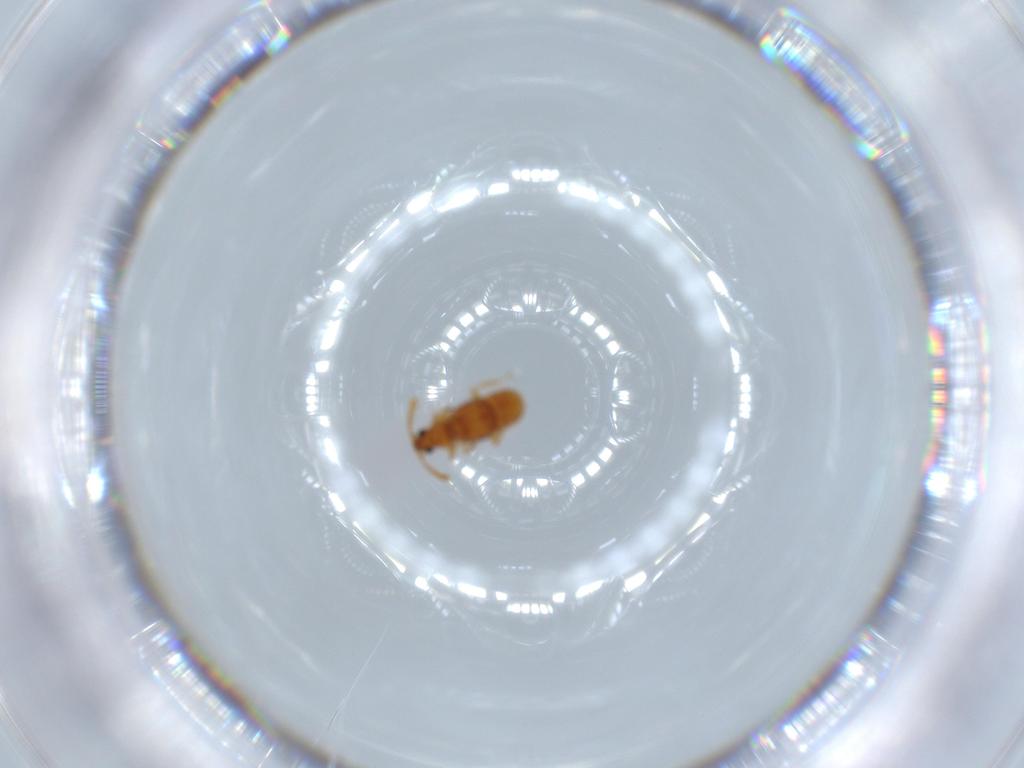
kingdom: Animalia
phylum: Arthropoda
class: Insecta
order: Coleoptera
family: Staphylinidae
